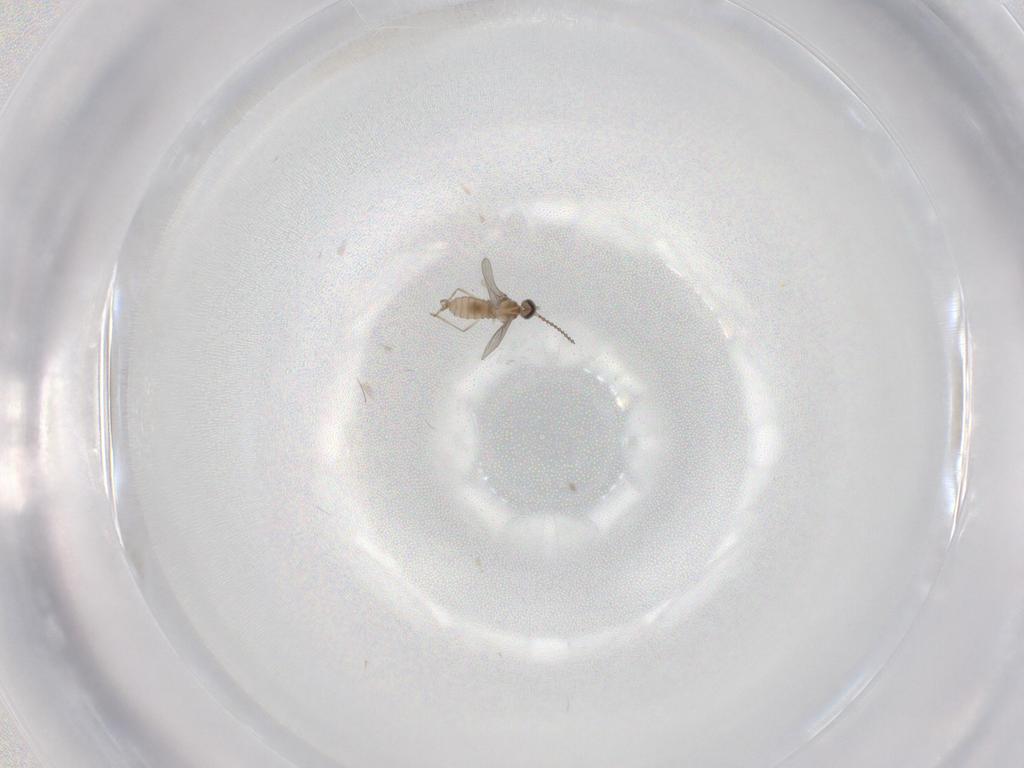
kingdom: Animalia
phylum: Arthropoda
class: Insecta
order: Diptera
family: Cecidomyiidae
